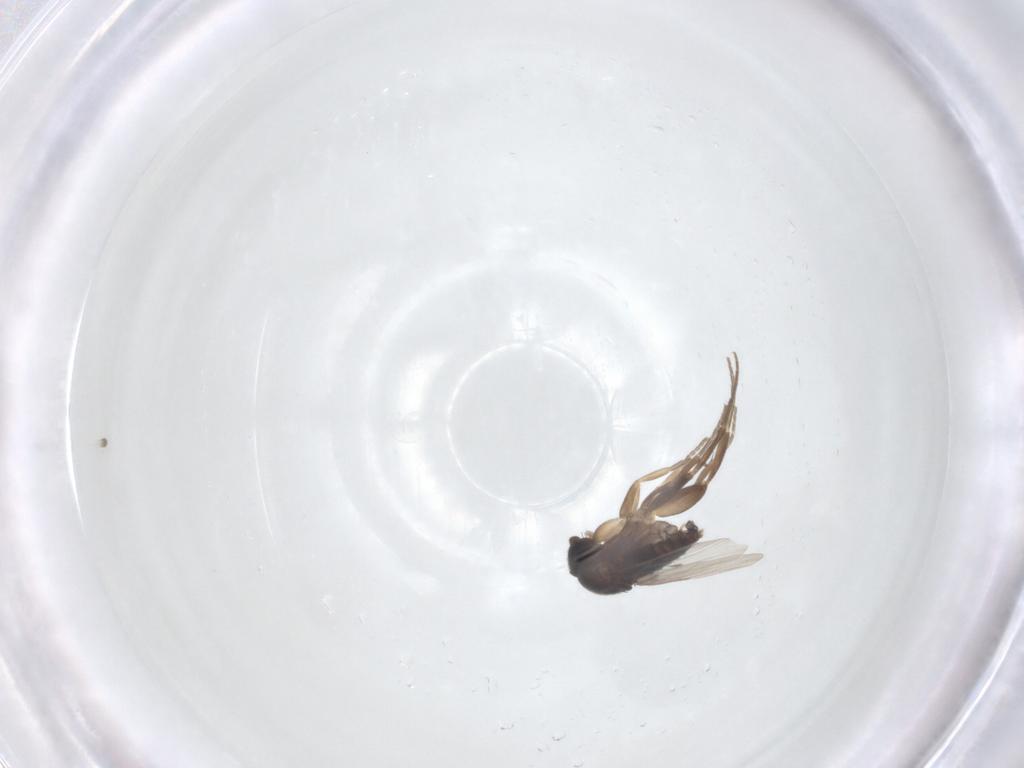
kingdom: Animalia
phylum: Arthropoda
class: Insecta
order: Diptera
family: Phoridae
